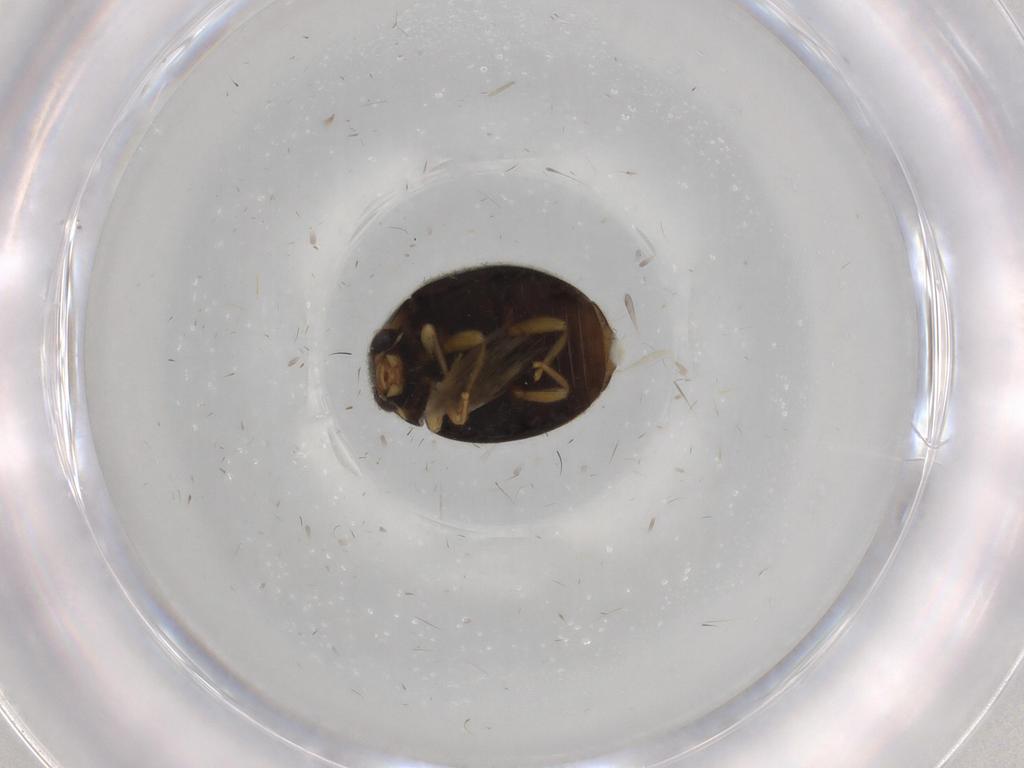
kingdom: Animalia
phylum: Arthropoda
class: Insecta
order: Coleoptera
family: Coccinellidae
